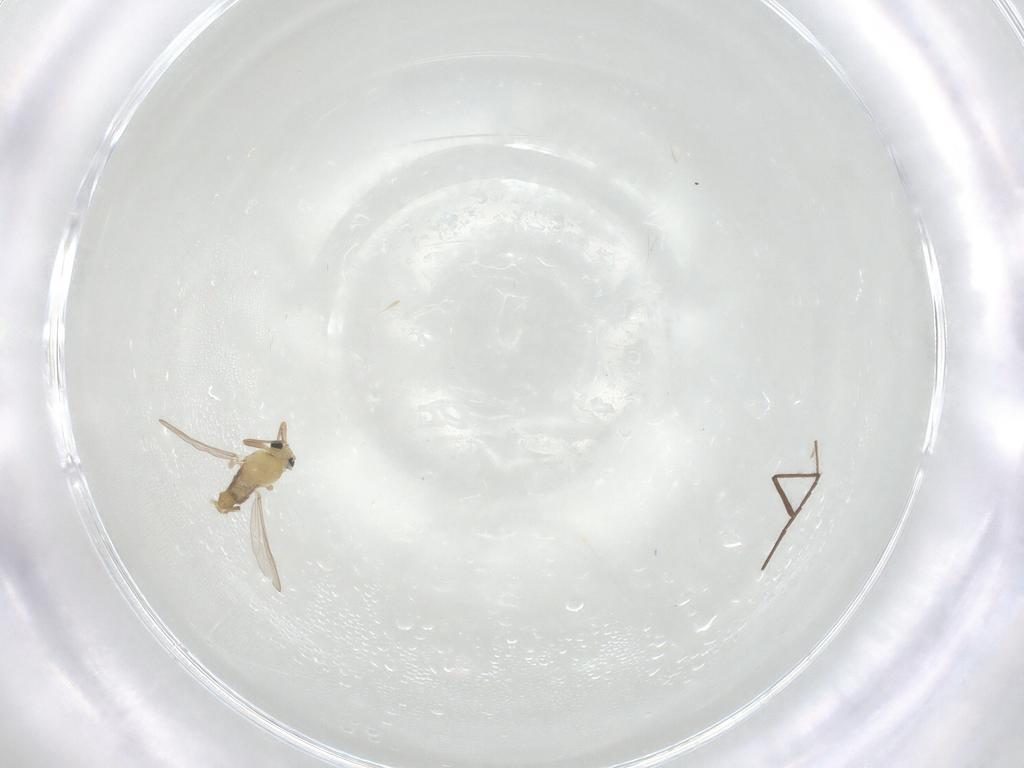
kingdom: Animalia
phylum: Arthropoda
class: Insecta
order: Diptera
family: Chironomidae
